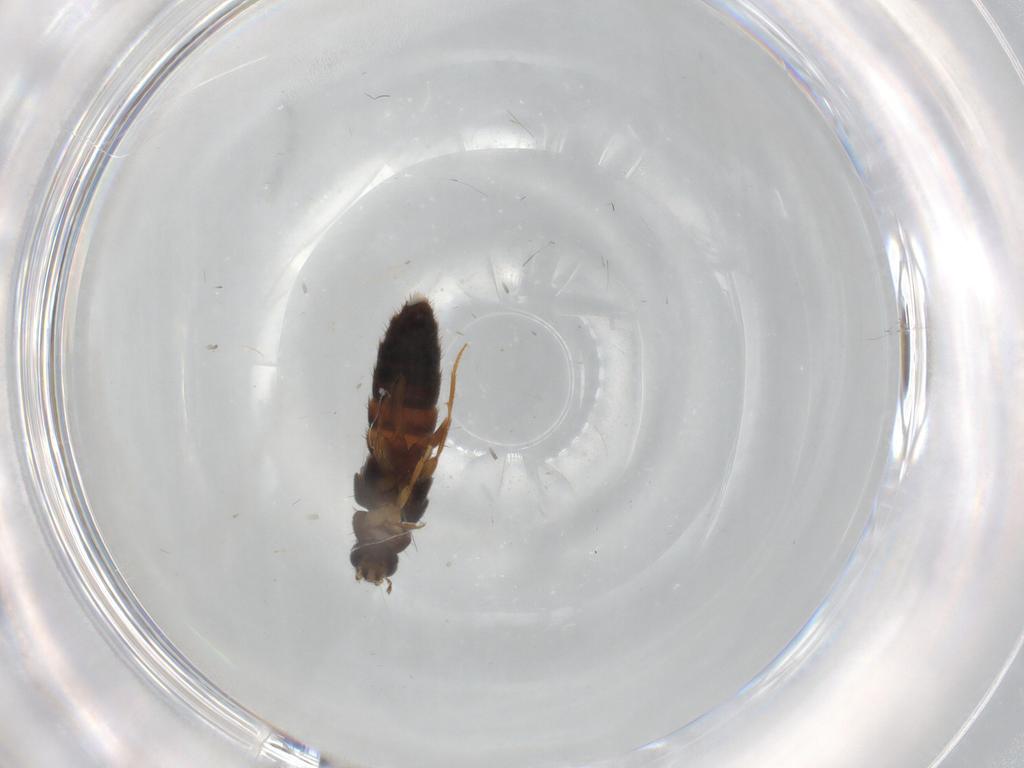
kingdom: Animalia
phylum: Arthropoda
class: Insecta
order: Coleoptera
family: Staphylinidae
